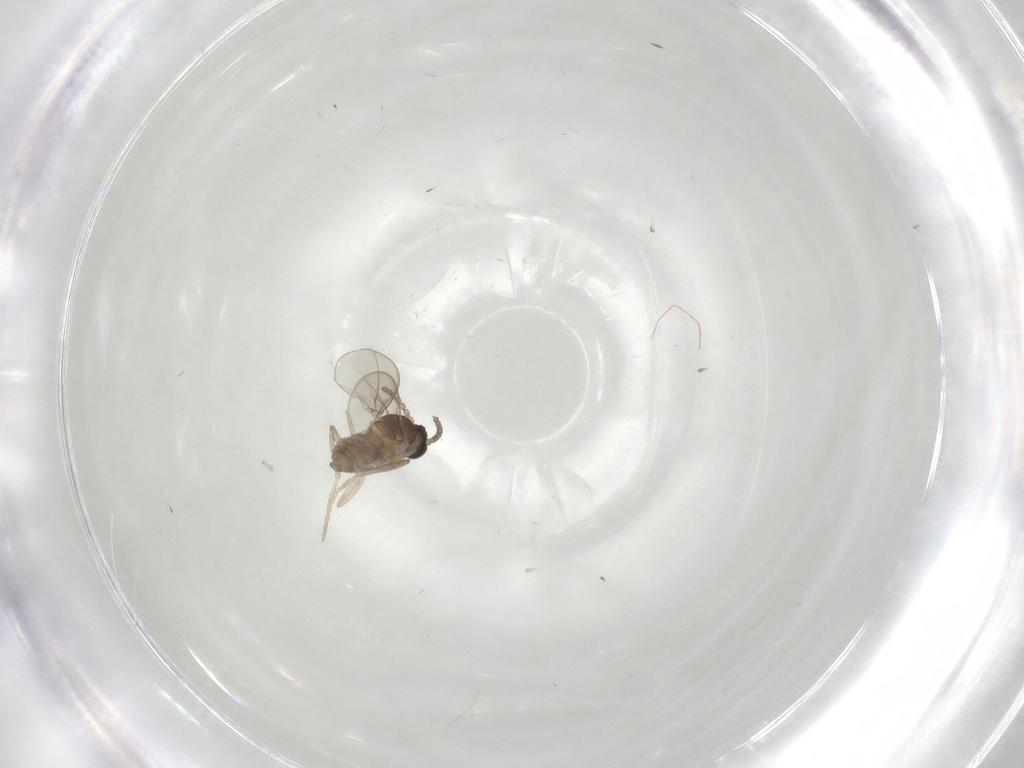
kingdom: Animalia
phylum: Arthropoda
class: Insecta
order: Diptera
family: Cecidomyiidae
